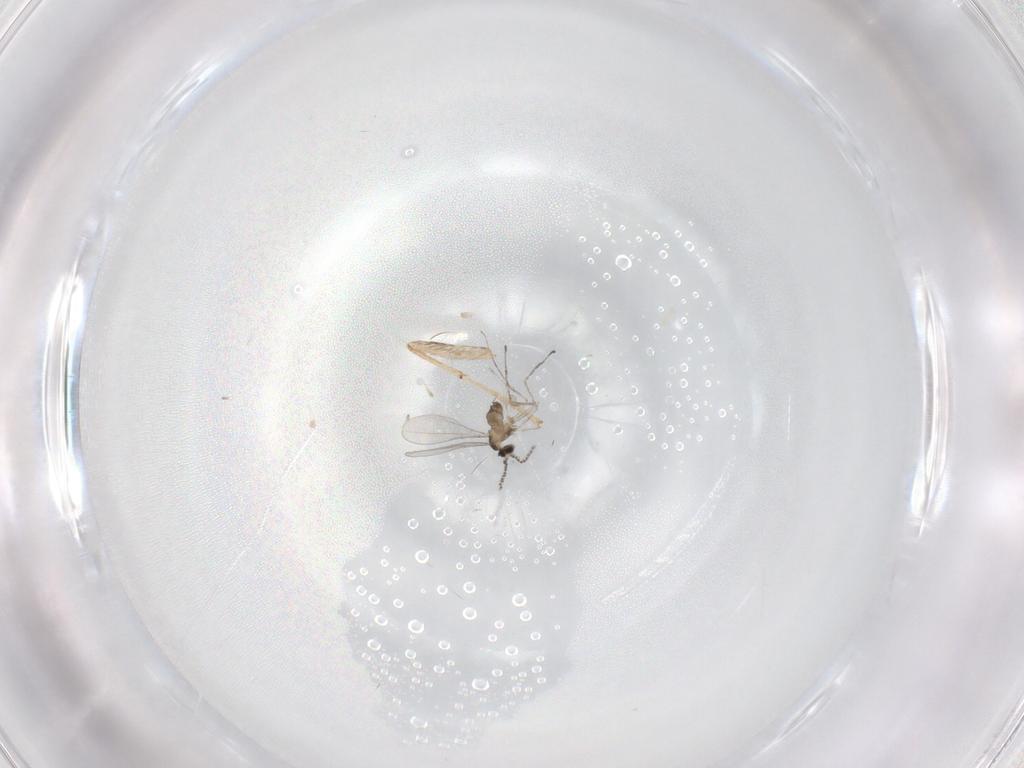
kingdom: Animalia
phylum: Arthropoda
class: Insecta
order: Diptera
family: Cecidomyiidae
